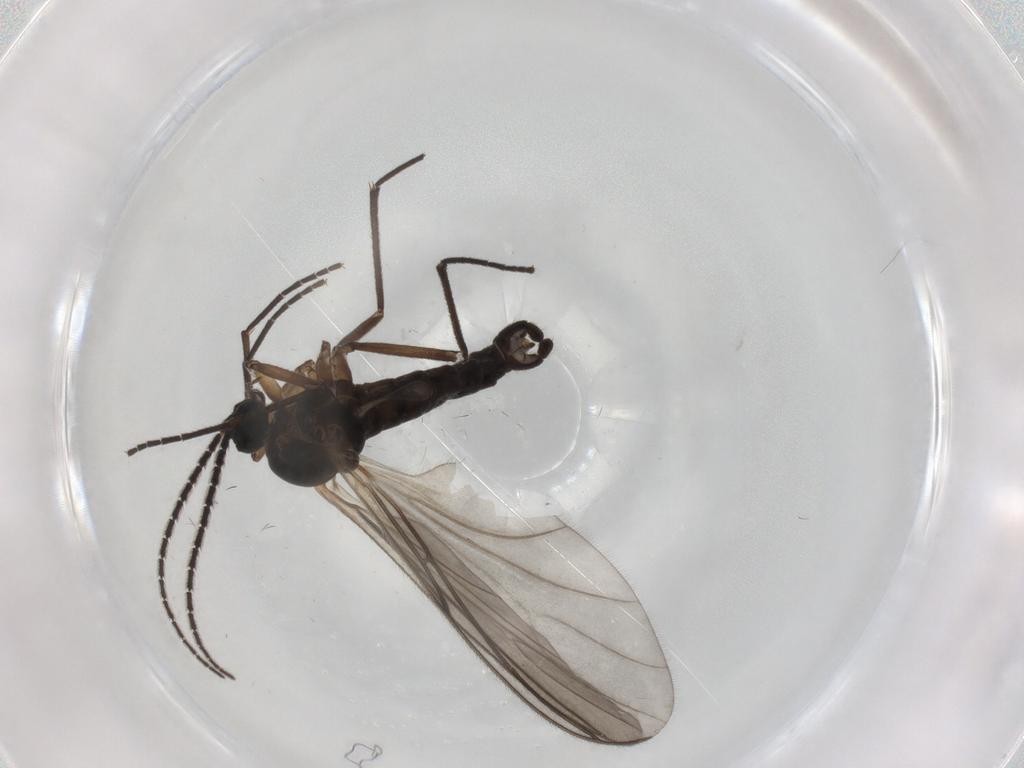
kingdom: Animalia
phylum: Arthropoda
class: Insecta
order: Diptera
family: Sciaridae
